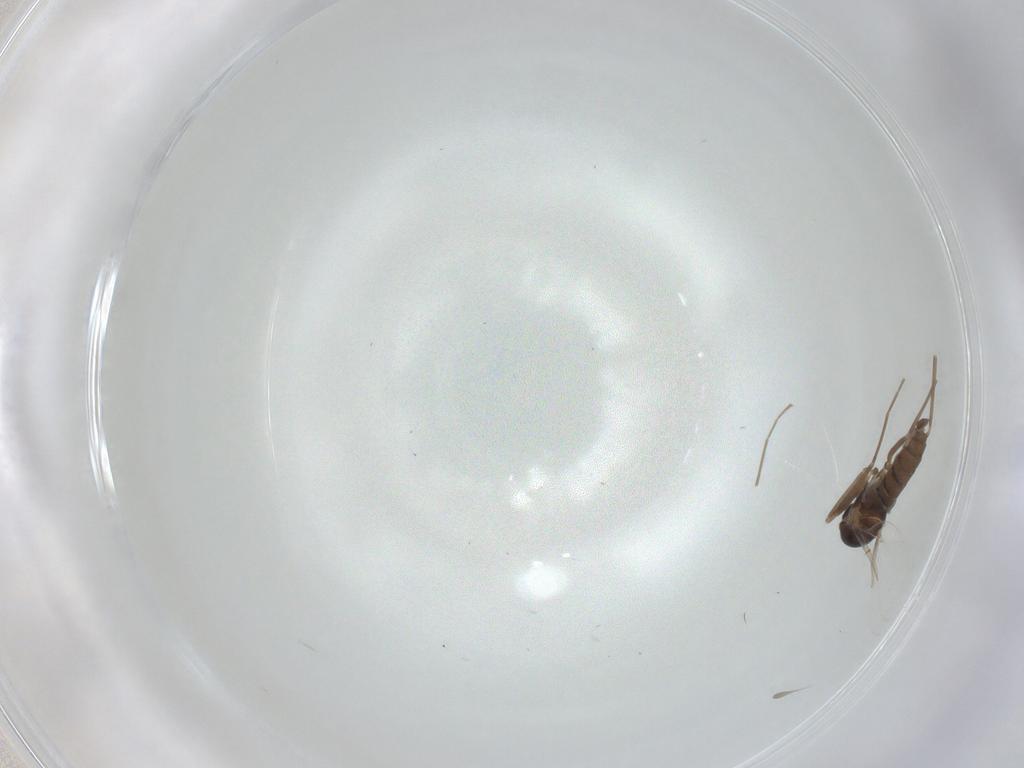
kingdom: Animalia
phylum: Arthropoda
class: Insecta
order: Diptera
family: Cecidomyiidae
